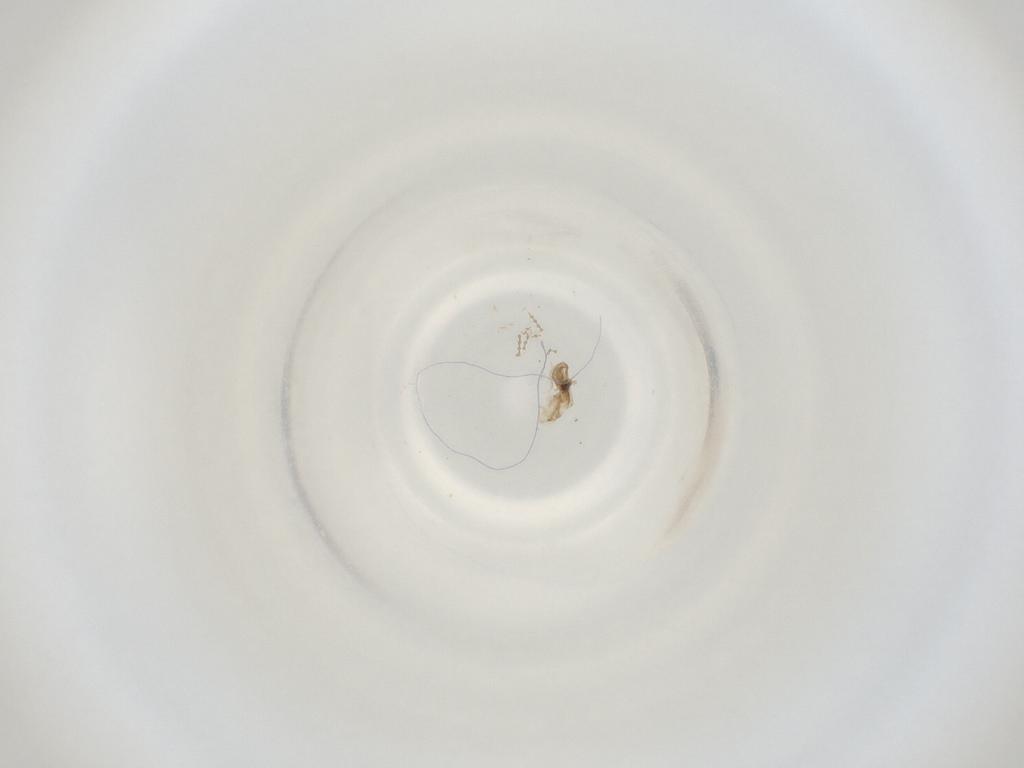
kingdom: Animalia
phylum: Arthropoda
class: Insecta
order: Diptera
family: Cecidomyiidae
